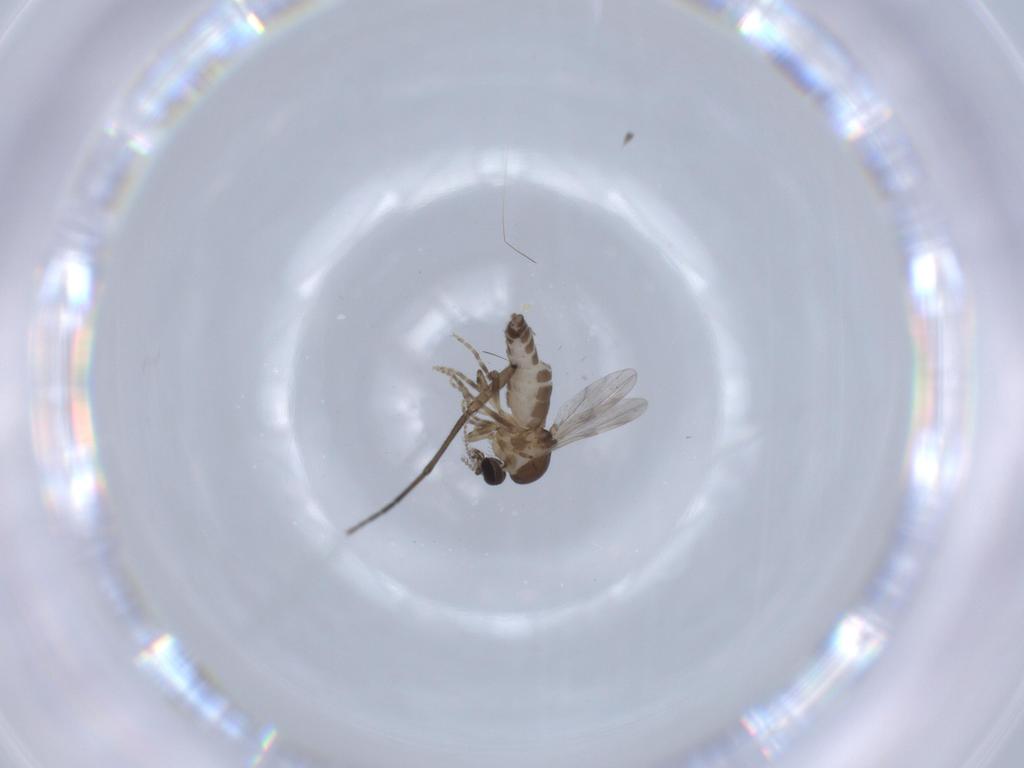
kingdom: Animalia
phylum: Arthropoda
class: Insecta
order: Diptera
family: Ceratopogonidae
